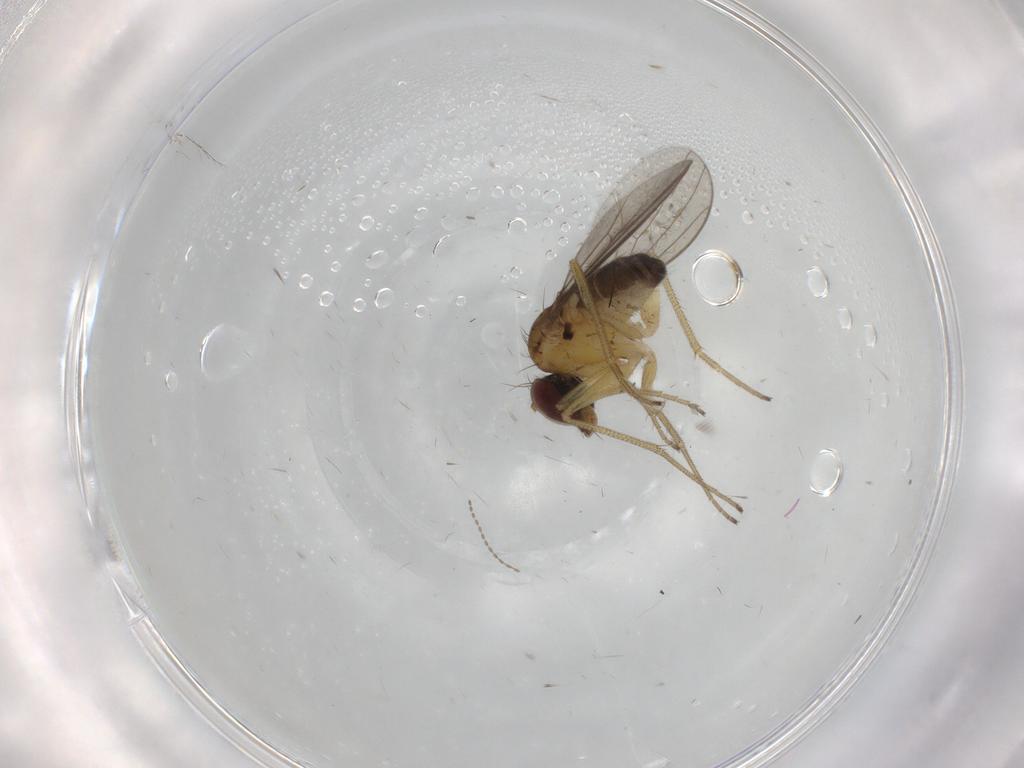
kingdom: Animalia
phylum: Arthropoda
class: Insecta
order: Diptera
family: Dolichopodidae
